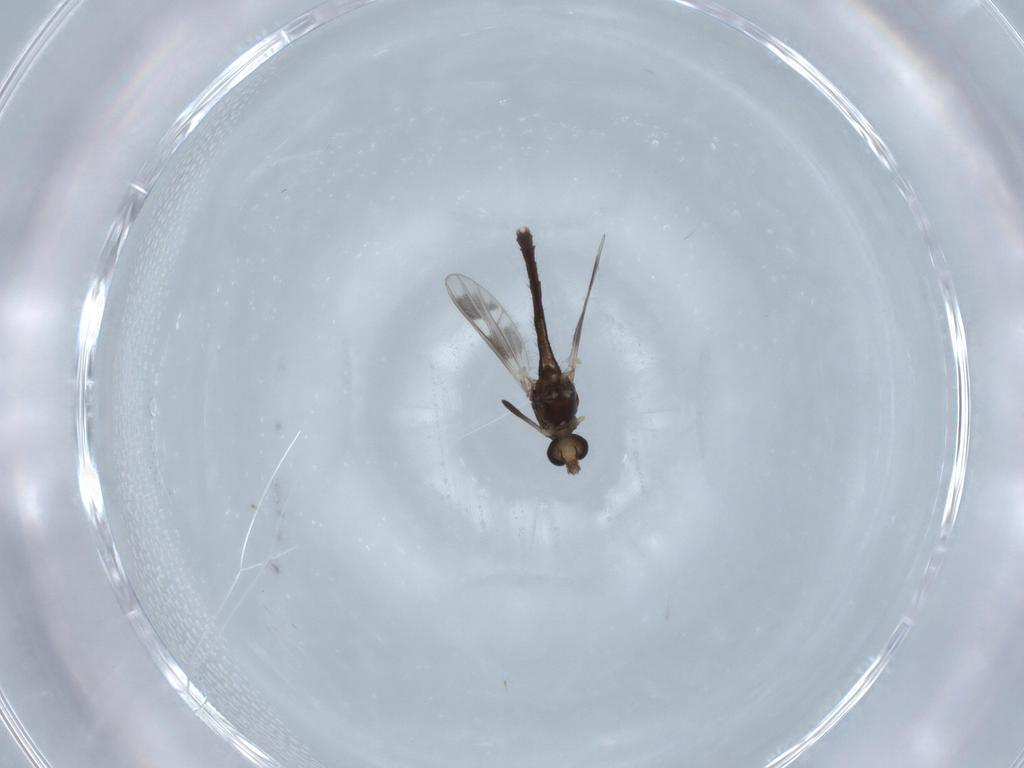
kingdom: Animalia
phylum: Arthropoda
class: Insecta
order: Diptera
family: Chironomidae
